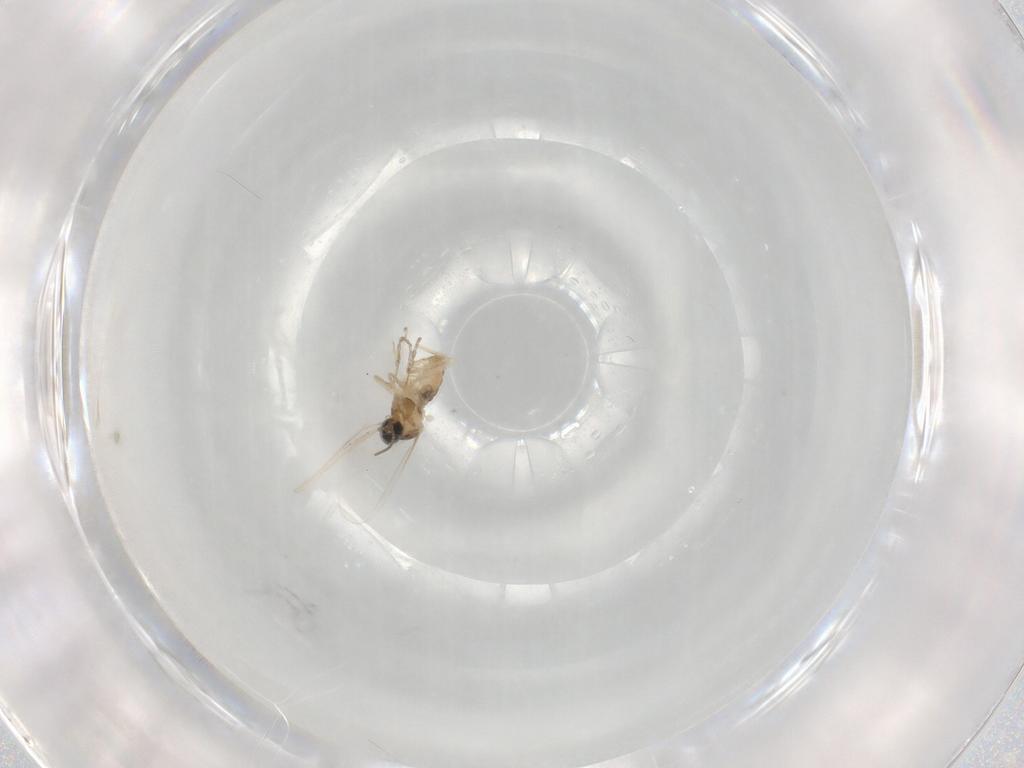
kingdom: Animalia
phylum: Arthropoda
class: Insecta
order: Diptera
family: Cecidomyiidae
